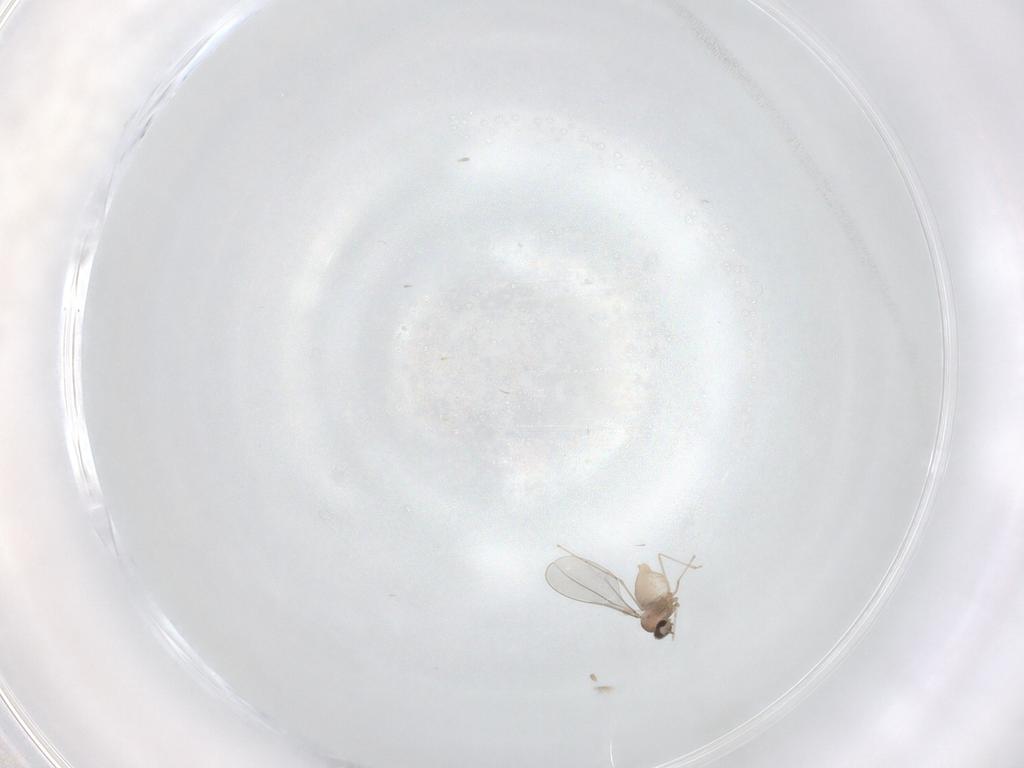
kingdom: Animalia
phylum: Arthropoda
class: Insecta
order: Diptera
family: Cecidomyiidae
